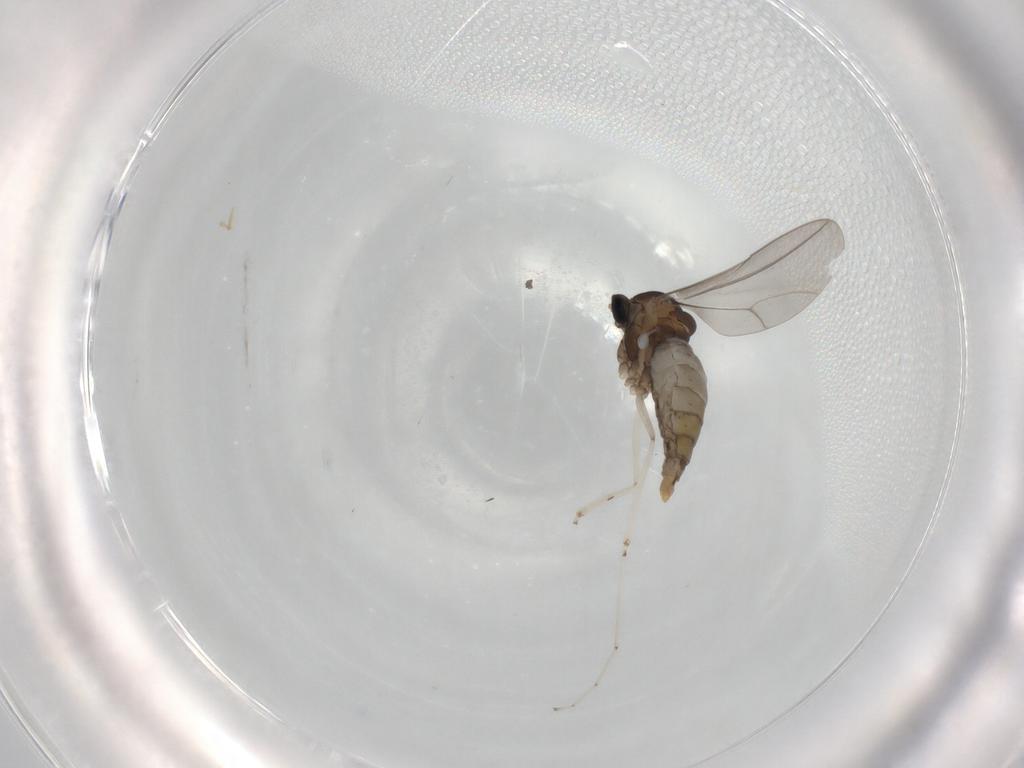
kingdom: Animalia
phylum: Arthropoda
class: Insecta
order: Diptera
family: Cecidomyiidae
